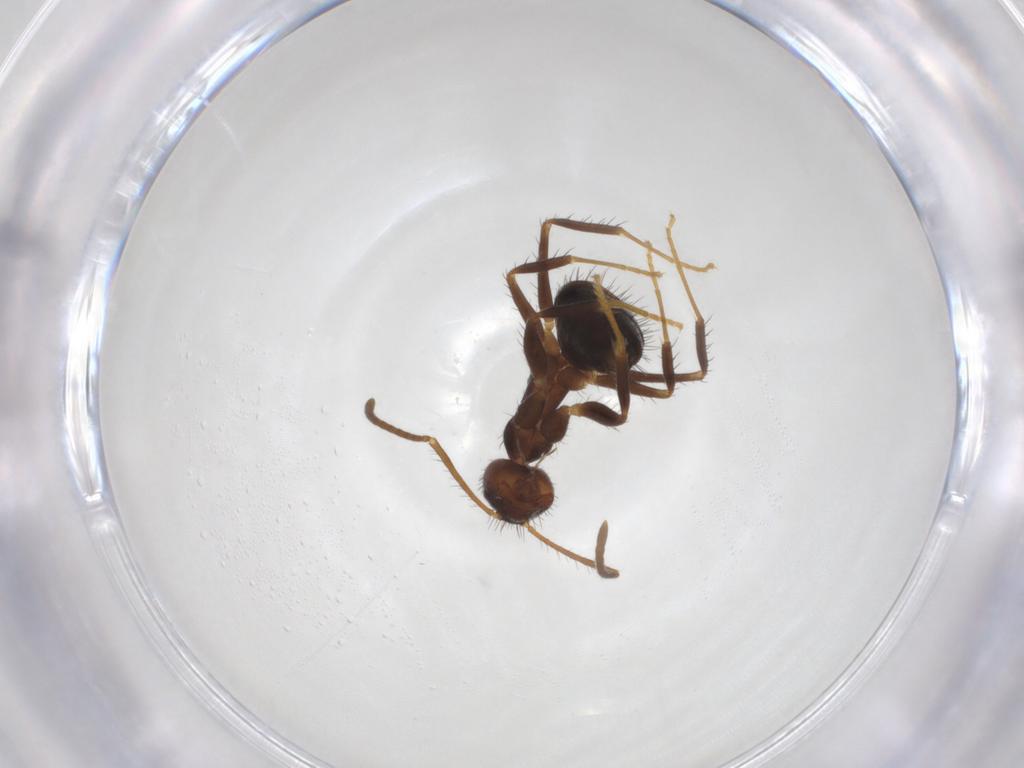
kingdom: Animalia
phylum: Arthropoda
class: Insecta
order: Hymenoptera
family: Formicidae
